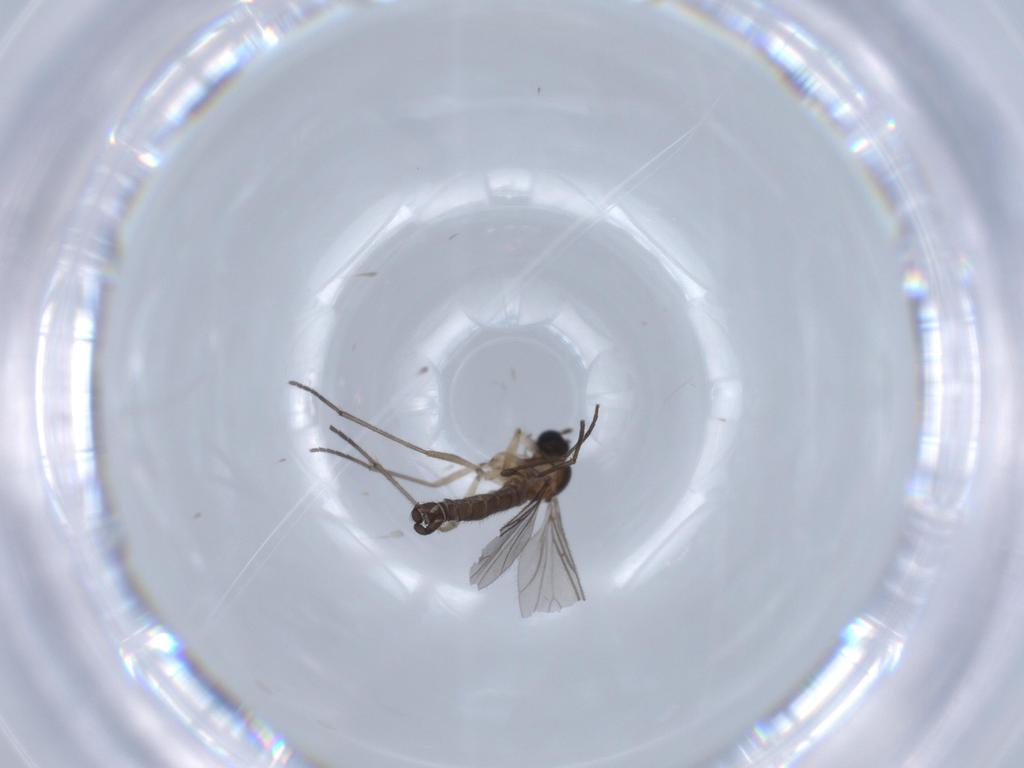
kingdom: Animalia
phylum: Arthropoda
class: Insecta
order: Diptera
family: Sciaridae
